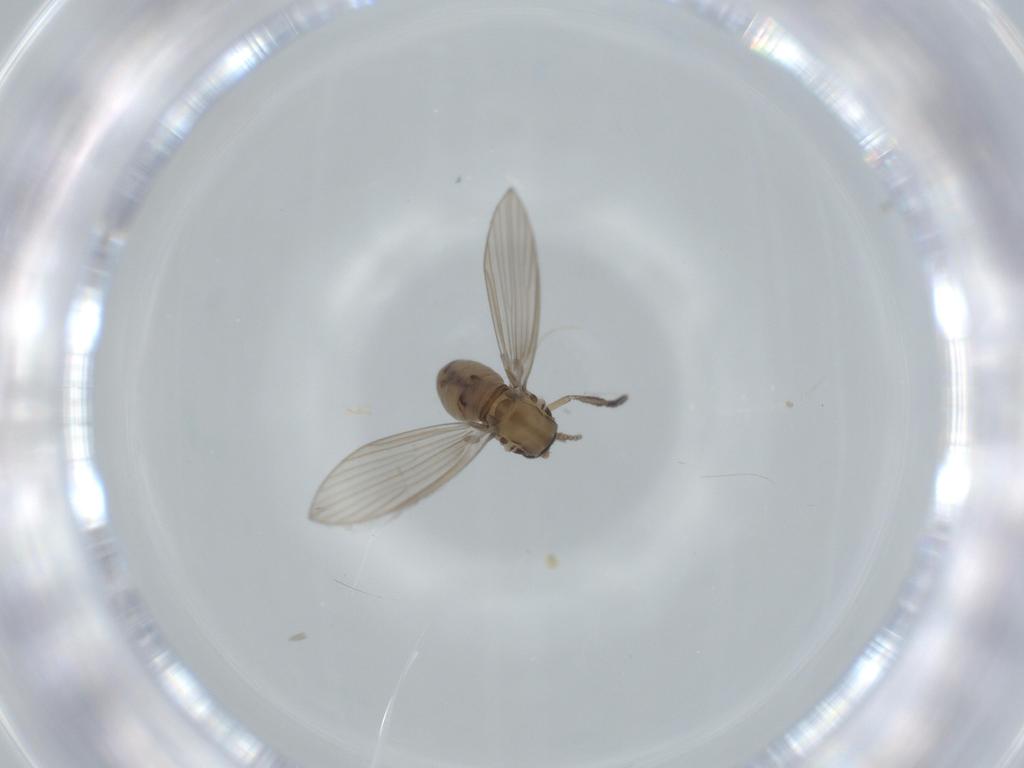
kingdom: Animalia
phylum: Arthropoda
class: Insecta
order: Diptera
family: Psychodidae
